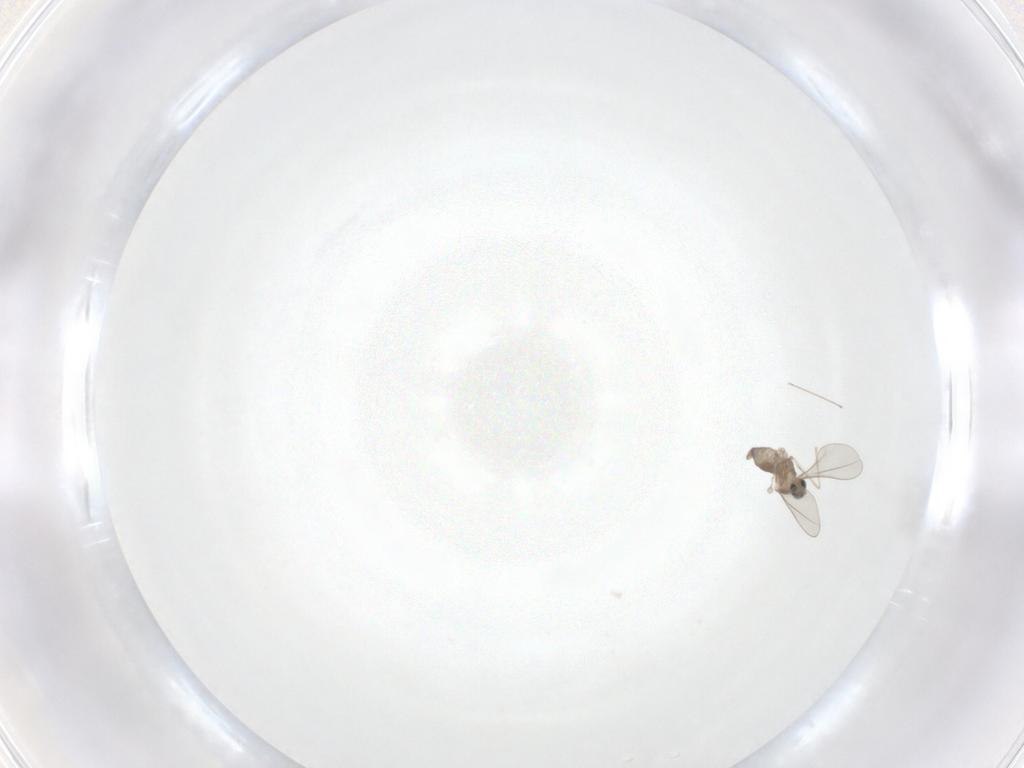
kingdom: Animalia
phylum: Arthropoda
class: Insecta
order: Diptera
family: Cecidomyiidae
